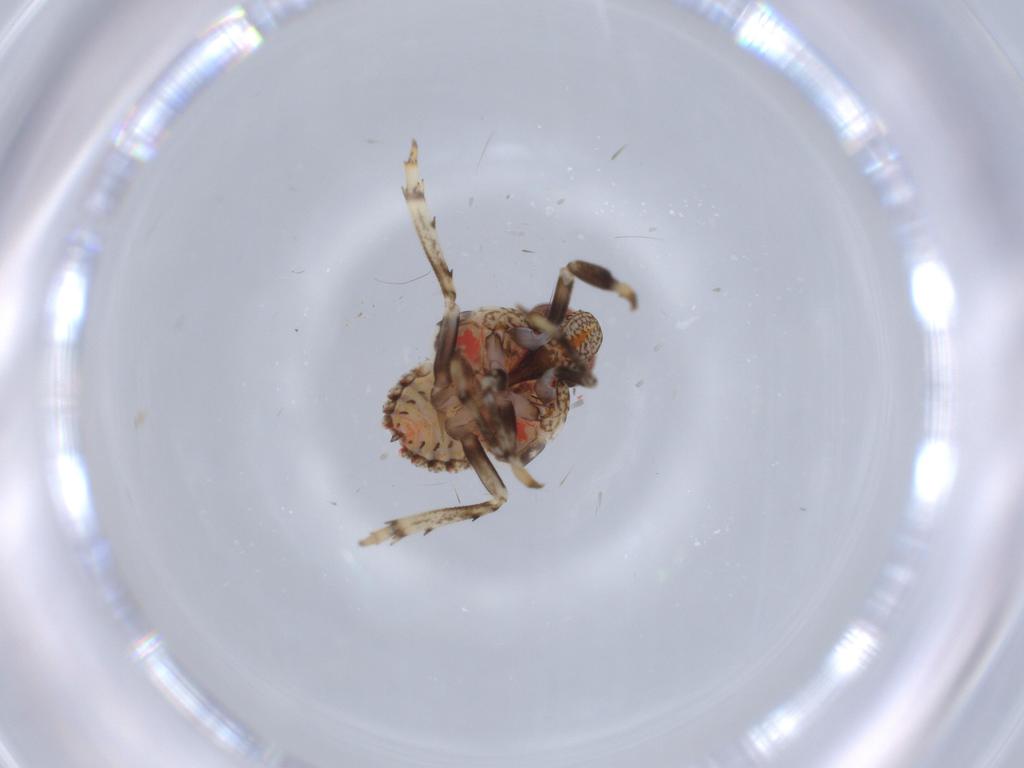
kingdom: Animalia
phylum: Arthropoda
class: Insecta
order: Hemiptera
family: Issidae
